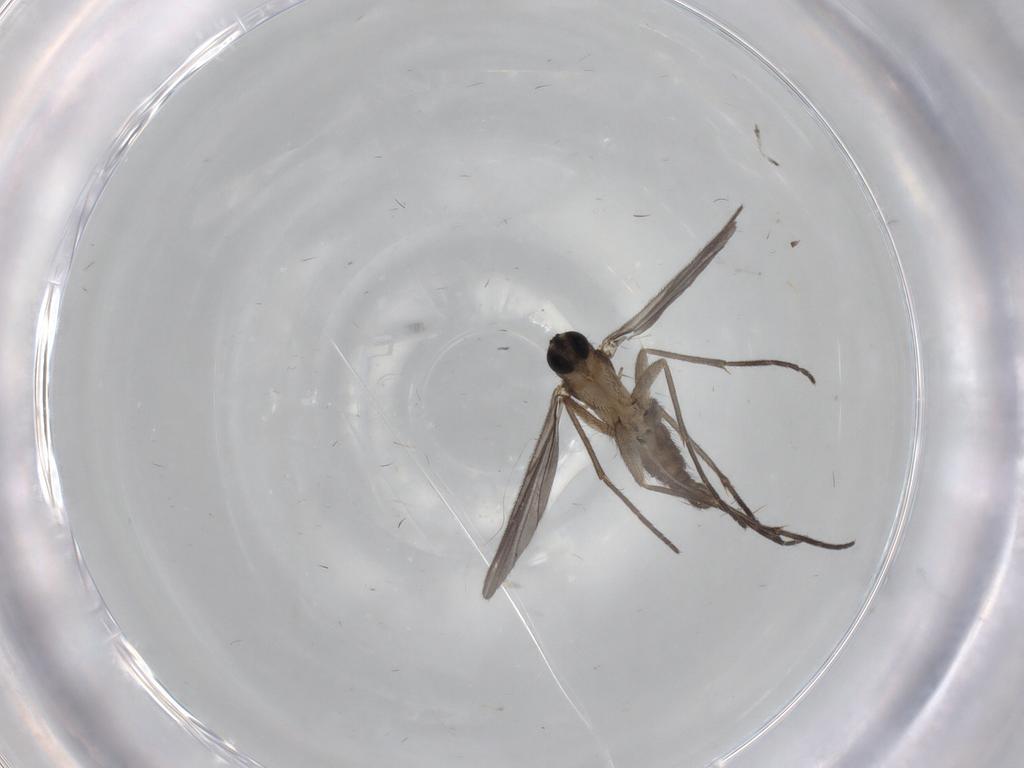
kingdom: Animalia
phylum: Arthropoda
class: Insecta
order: Diptera
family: Sciaridae
